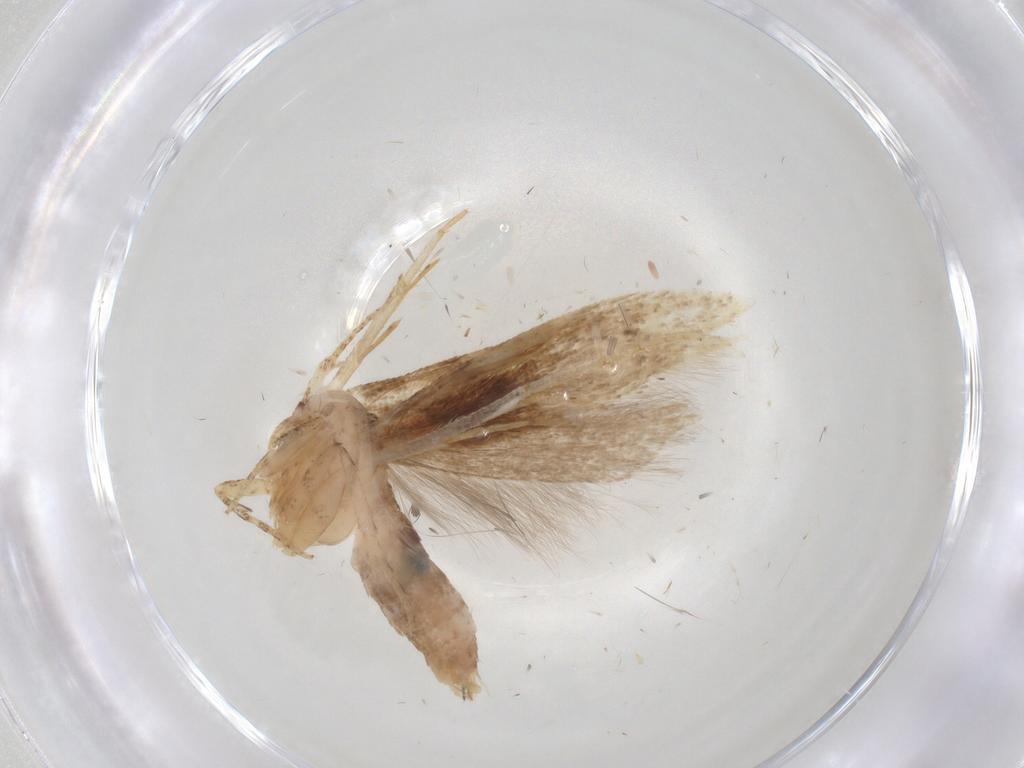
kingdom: Animalia
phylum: Arthropoda
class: Insecta
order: Lepidoptera
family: Gelechiidae
